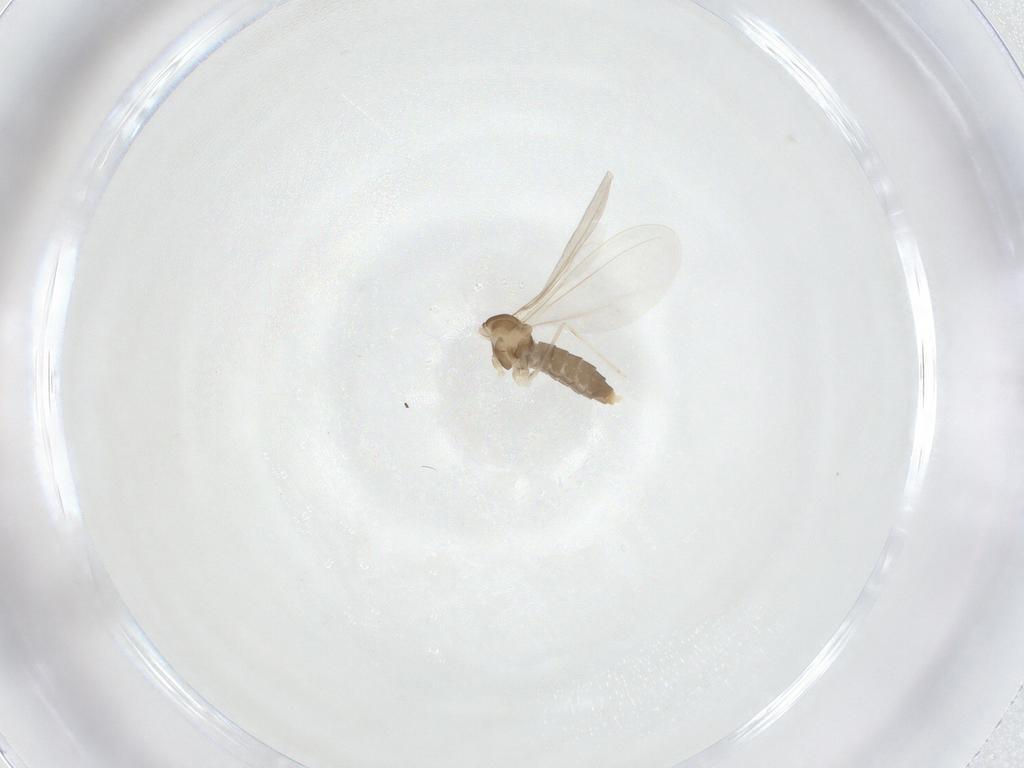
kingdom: Animalia
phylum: Arthropoda
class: Insecta
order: Diptera
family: Cecidomyiidae
